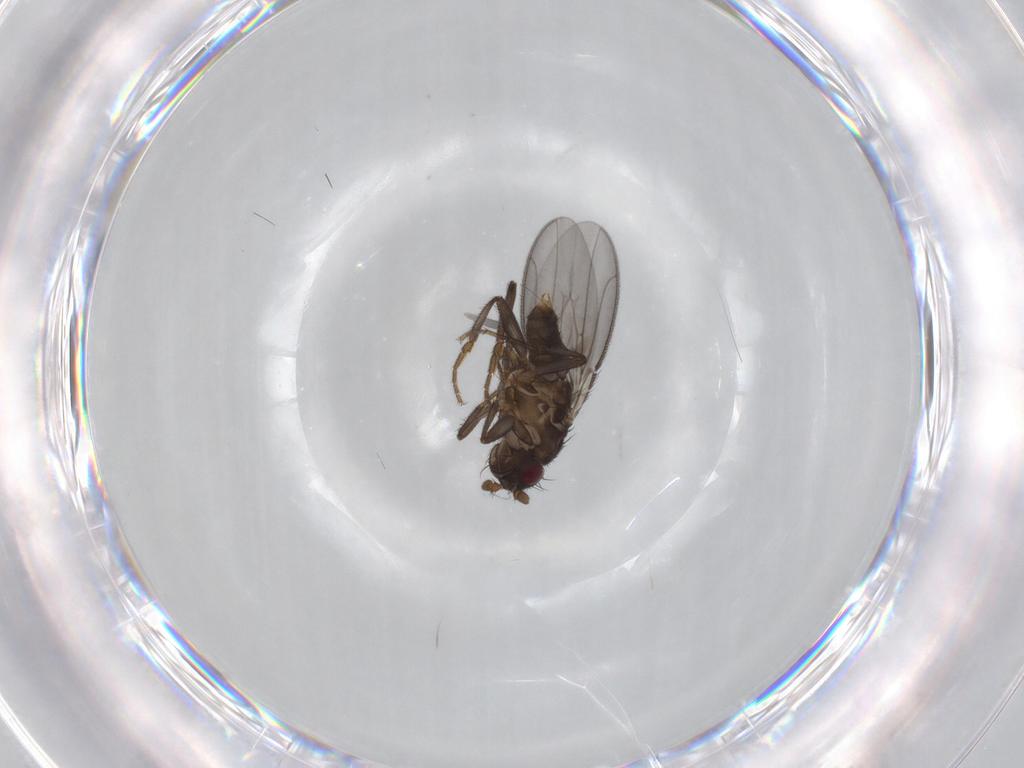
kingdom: Animalia
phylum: Arthropoda
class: Insecta
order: Diptera
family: Sphaeroceridae
